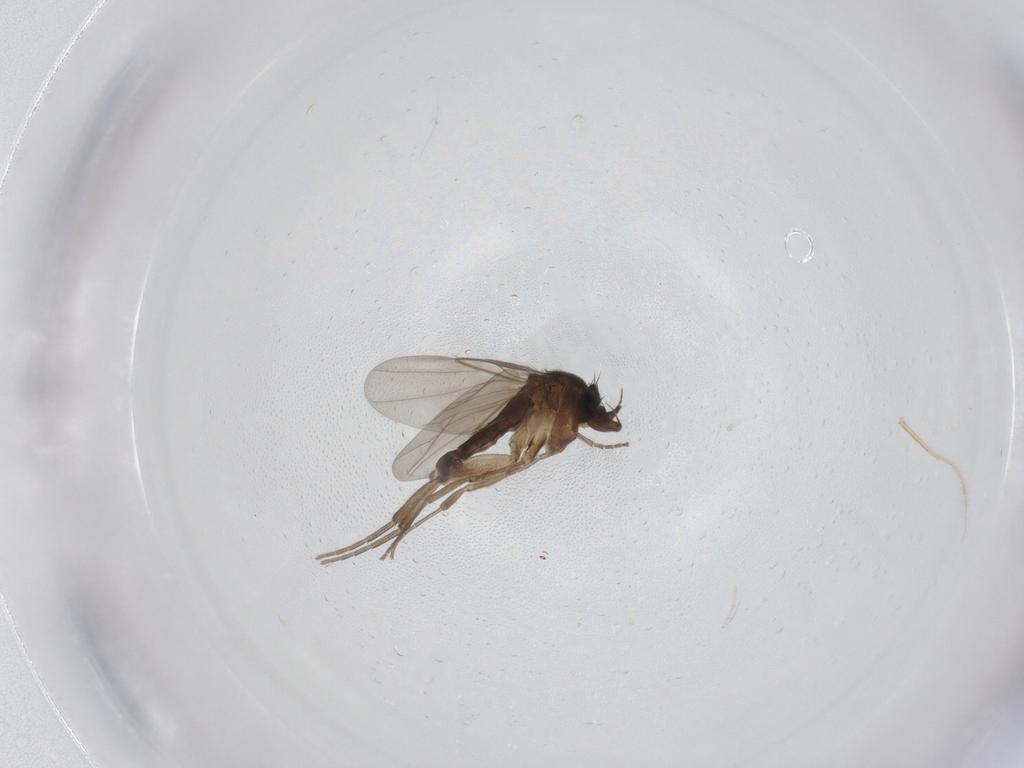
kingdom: Animalia
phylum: Arthropoda
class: Insecta
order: Diptera
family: Phoridae
